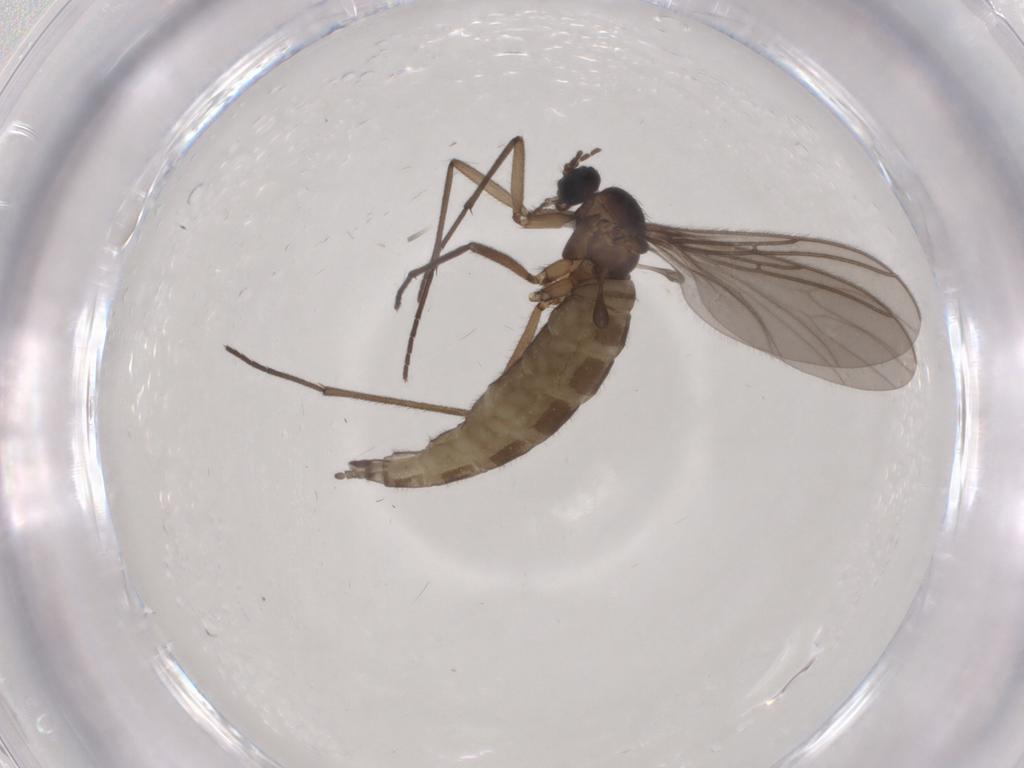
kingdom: Animalia
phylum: Arthropoda
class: Insecta
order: Diptera
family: Sciaridae
